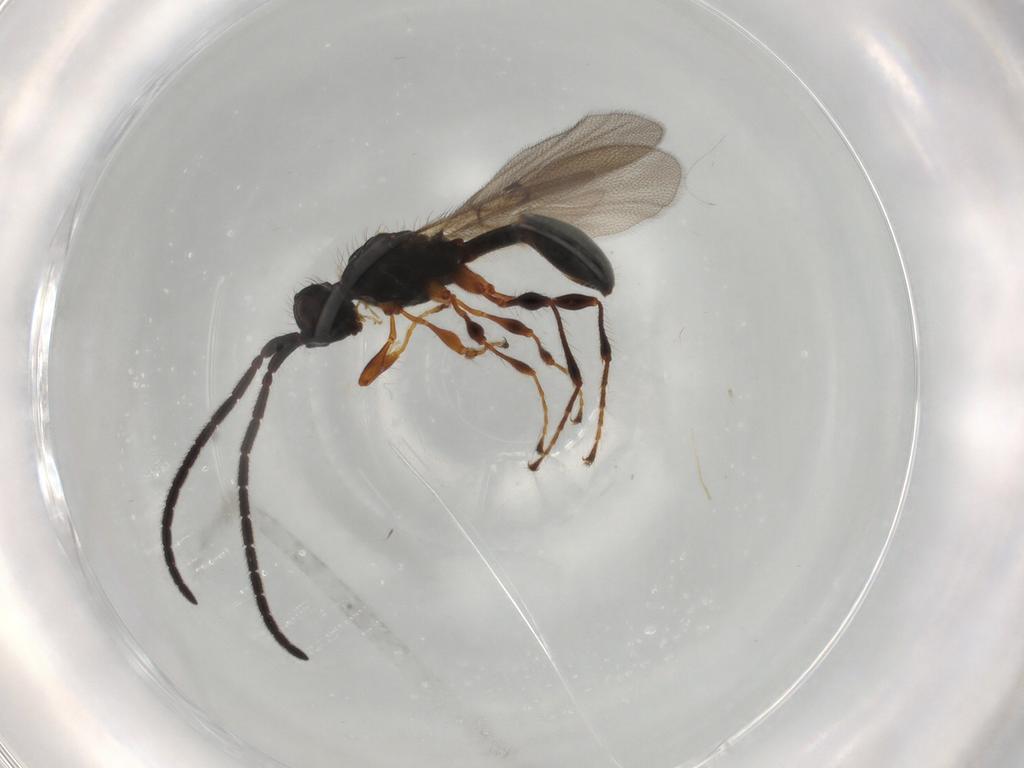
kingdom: Animalia
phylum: Arthropoda
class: Insecta
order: Hymenoptera
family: Diapriidae
